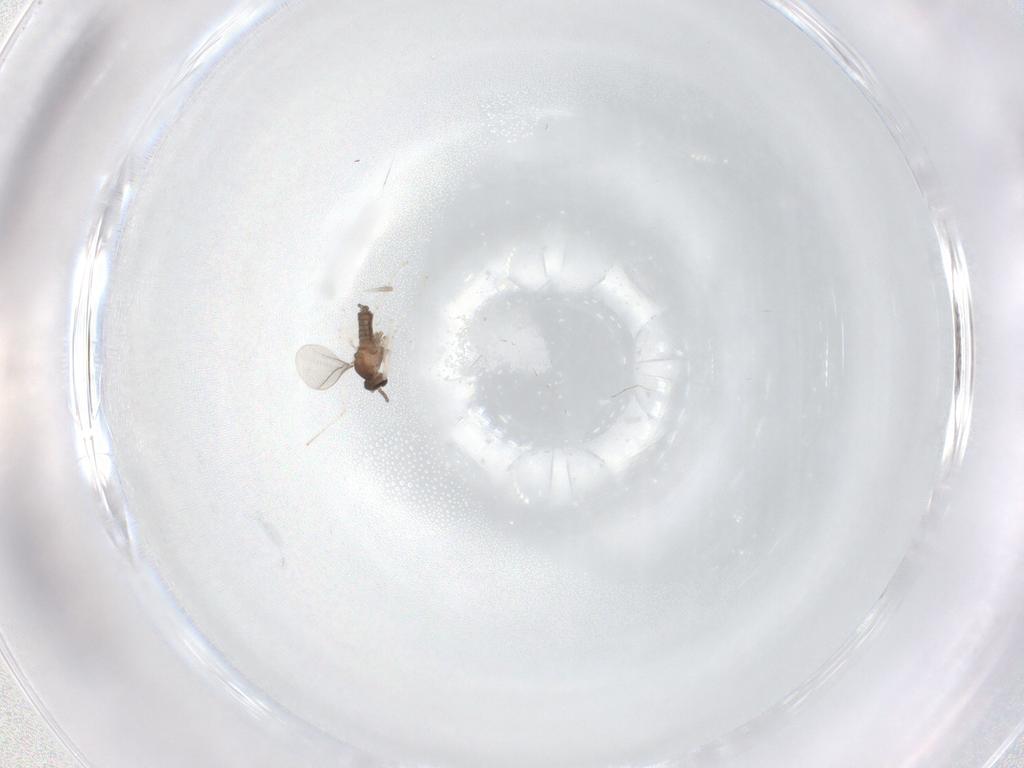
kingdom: Animalia
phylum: Arthropoda
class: Insecta
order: Diptera
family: Cecidomyiidae
